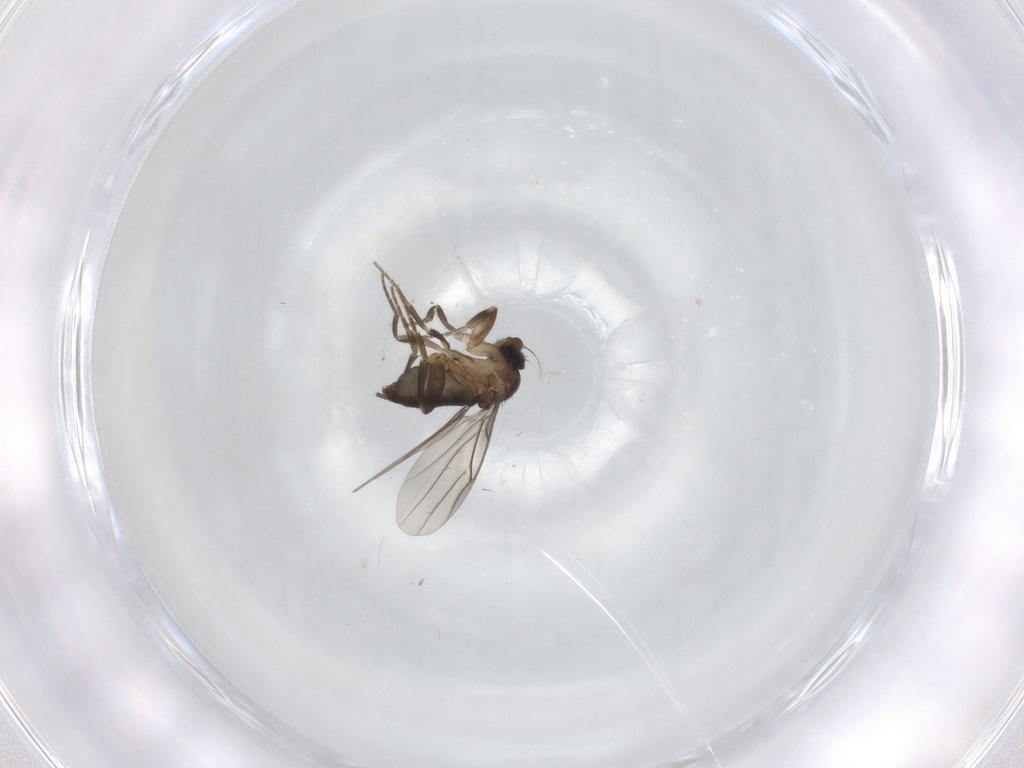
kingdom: Animalia
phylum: Arthropoda
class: Insecta
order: Diptera
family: Cecidomyiidae
